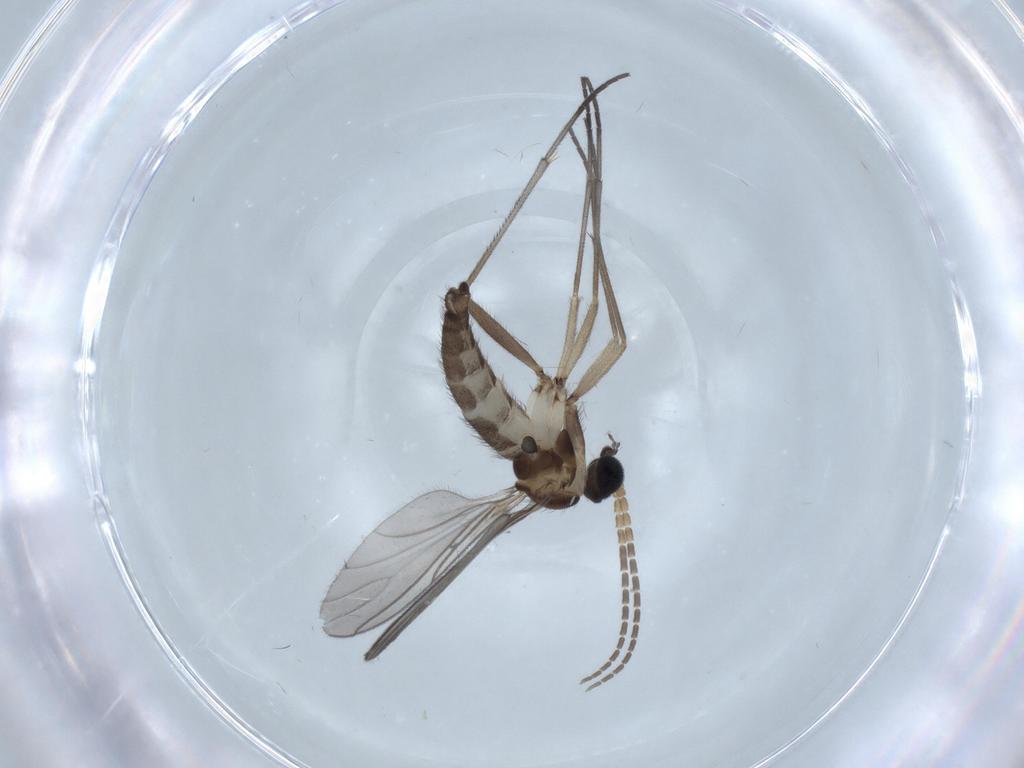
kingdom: Animalia
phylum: Arthropoda
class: Insecta
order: Diptera
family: Sciaridae
